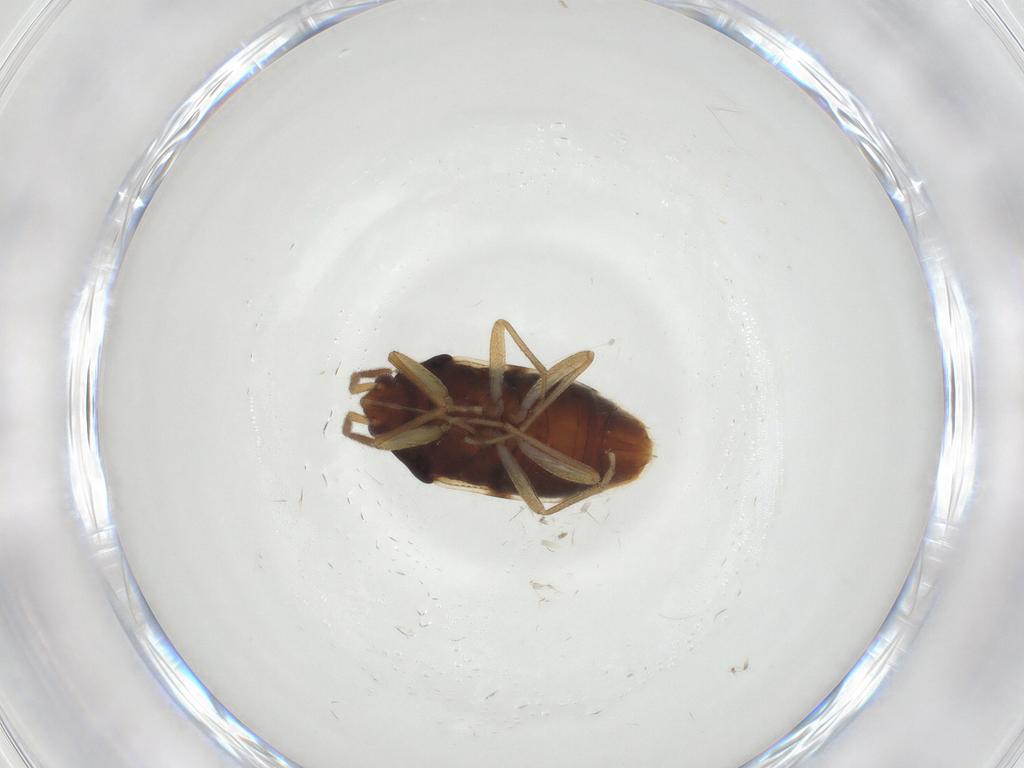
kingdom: Animalia
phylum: Arthropoda
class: Insecta
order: Hemiptera
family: Rhyparochromidae
